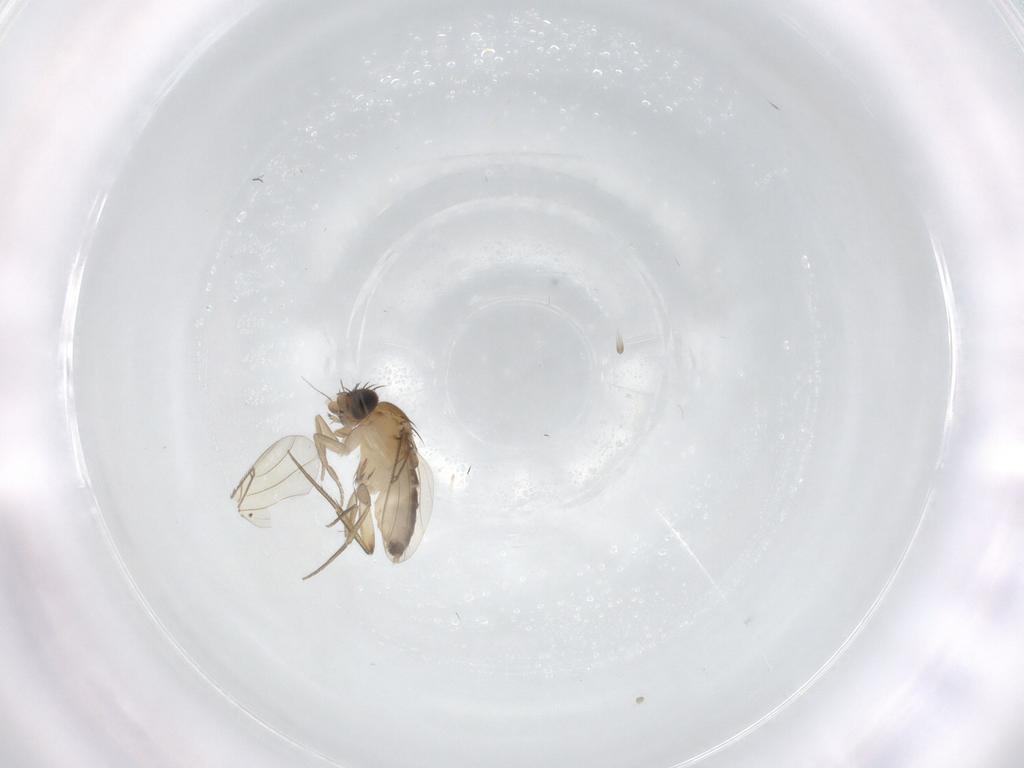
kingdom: Animalia
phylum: Arthropoda
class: Insecta
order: Diptera
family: Phoridae
